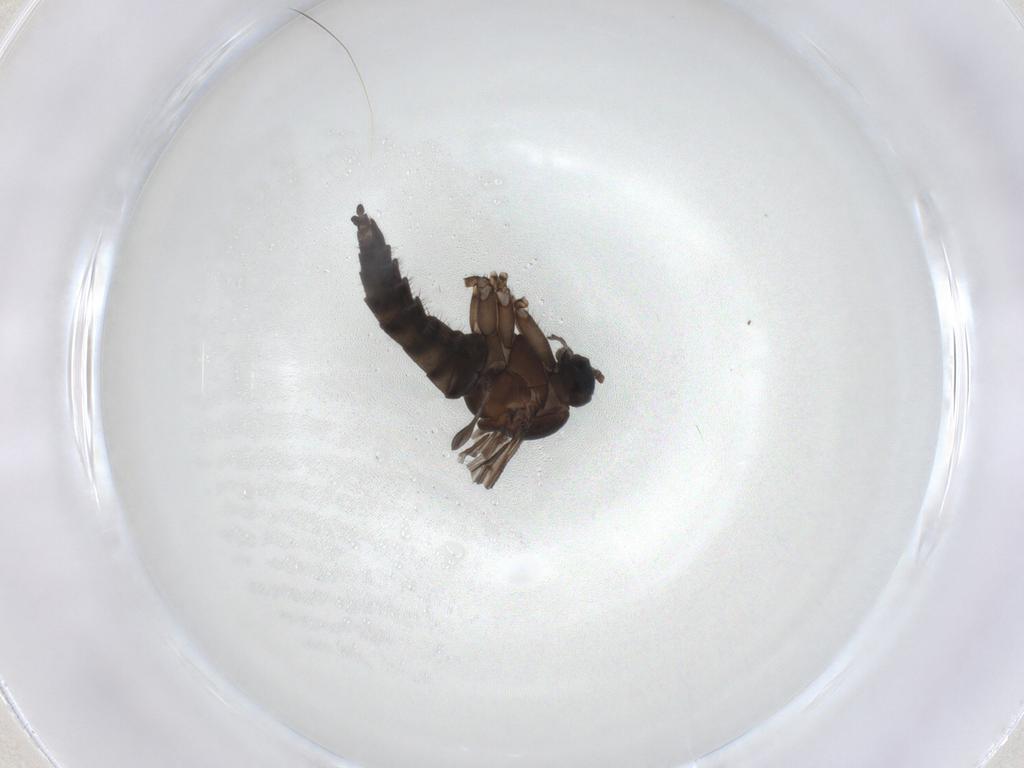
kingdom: Animalia
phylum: Arthropoda
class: Insecta
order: Diptera
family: Sciaridae
